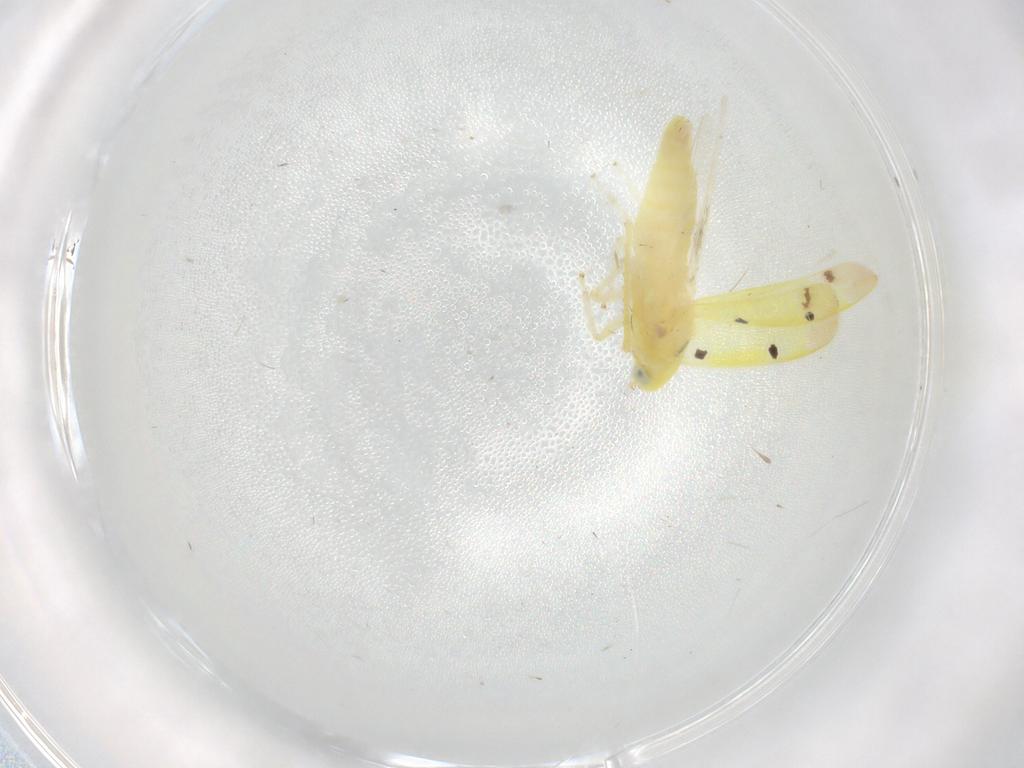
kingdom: Animalia
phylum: Arthropoda
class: Insecta
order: Hemiptera
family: Cicadellidae
